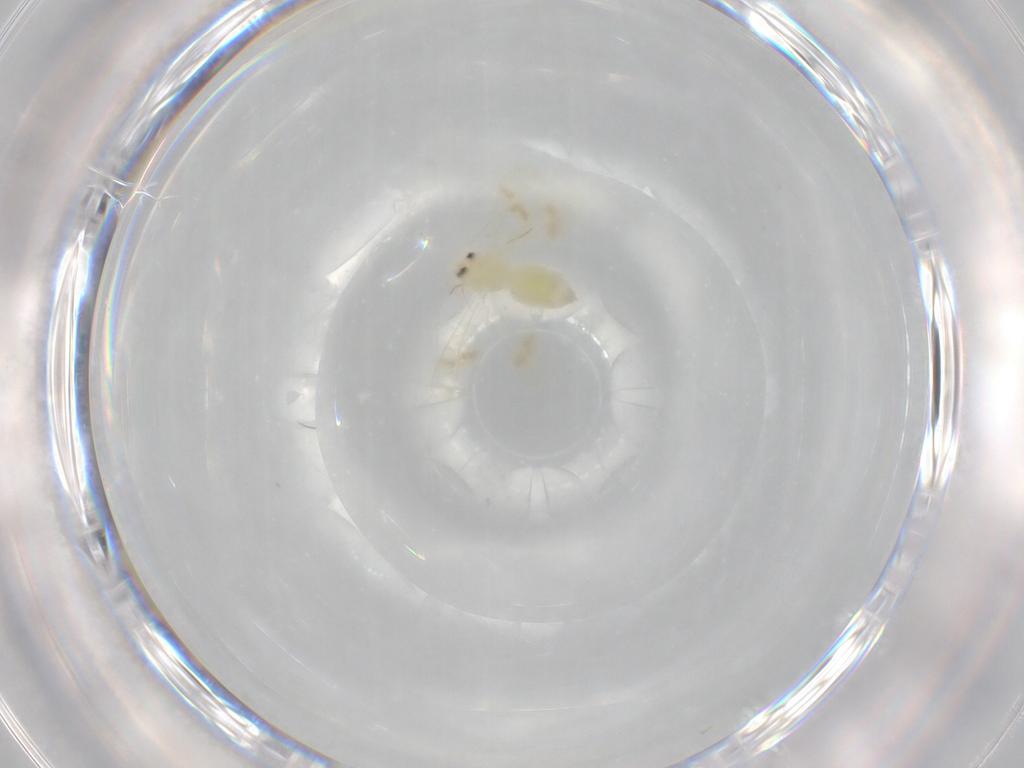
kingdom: Animalia
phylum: Arthropoda
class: Insecta
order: Hemiptera
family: Aleyrodidae
